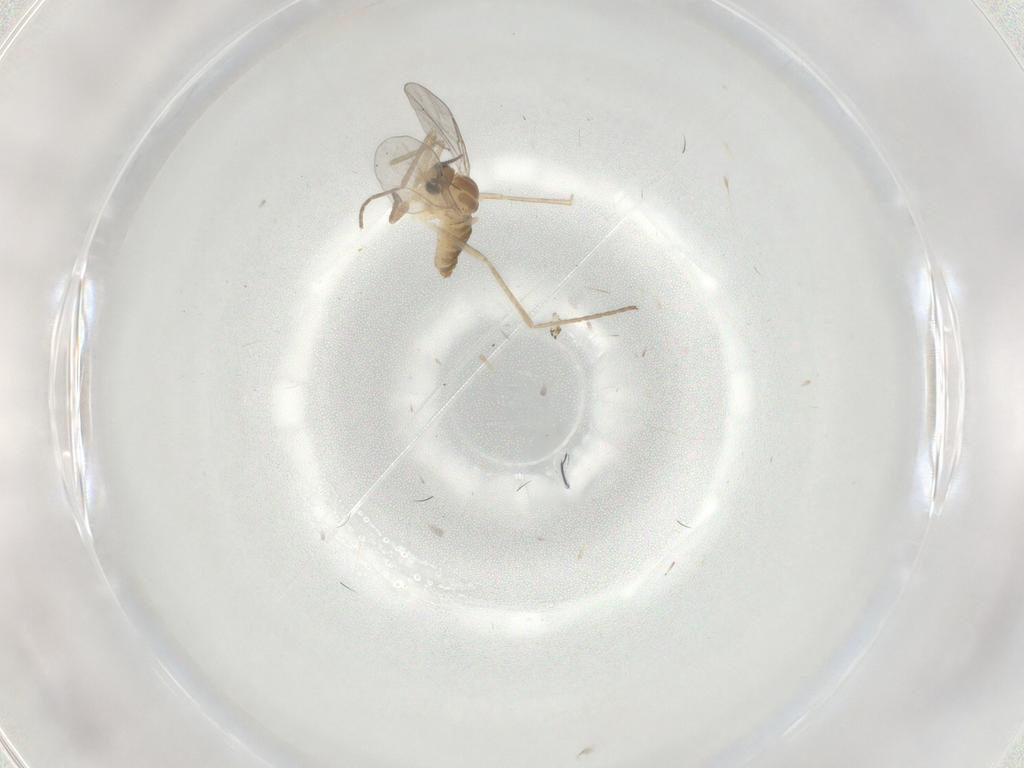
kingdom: Animalia
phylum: Arthropoda
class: Insecta
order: Diptera
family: Cecidomyiidae
